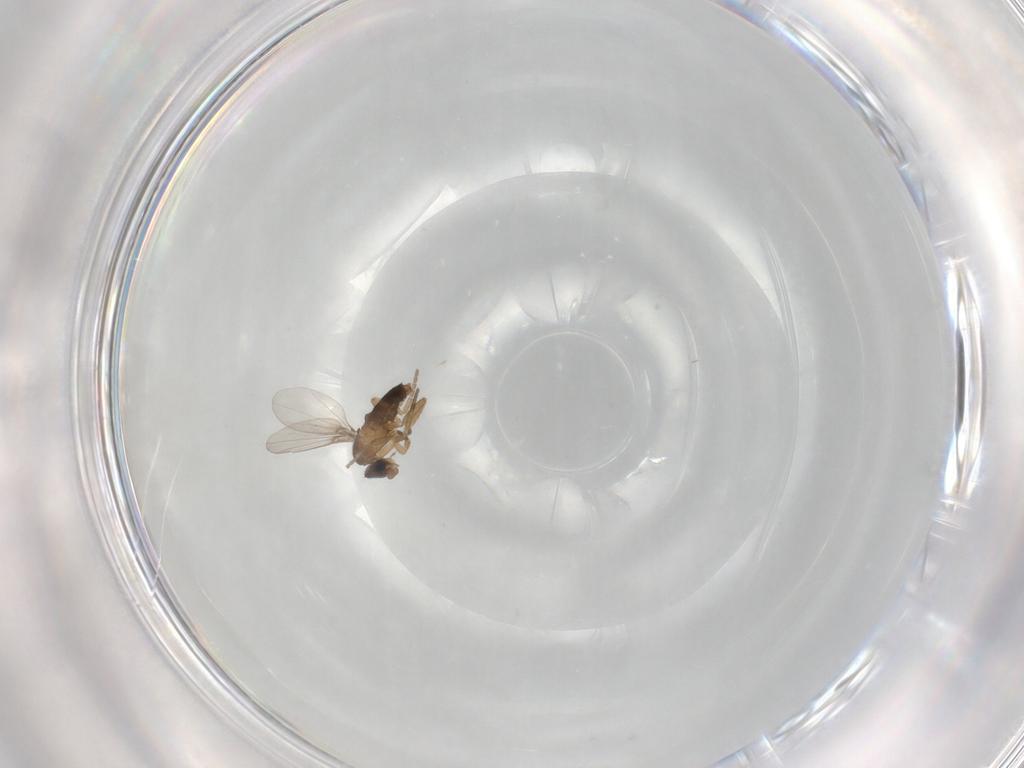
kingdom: Animalia
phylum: Arthropoda
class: Insecta
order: Diptera
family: Phoridae
